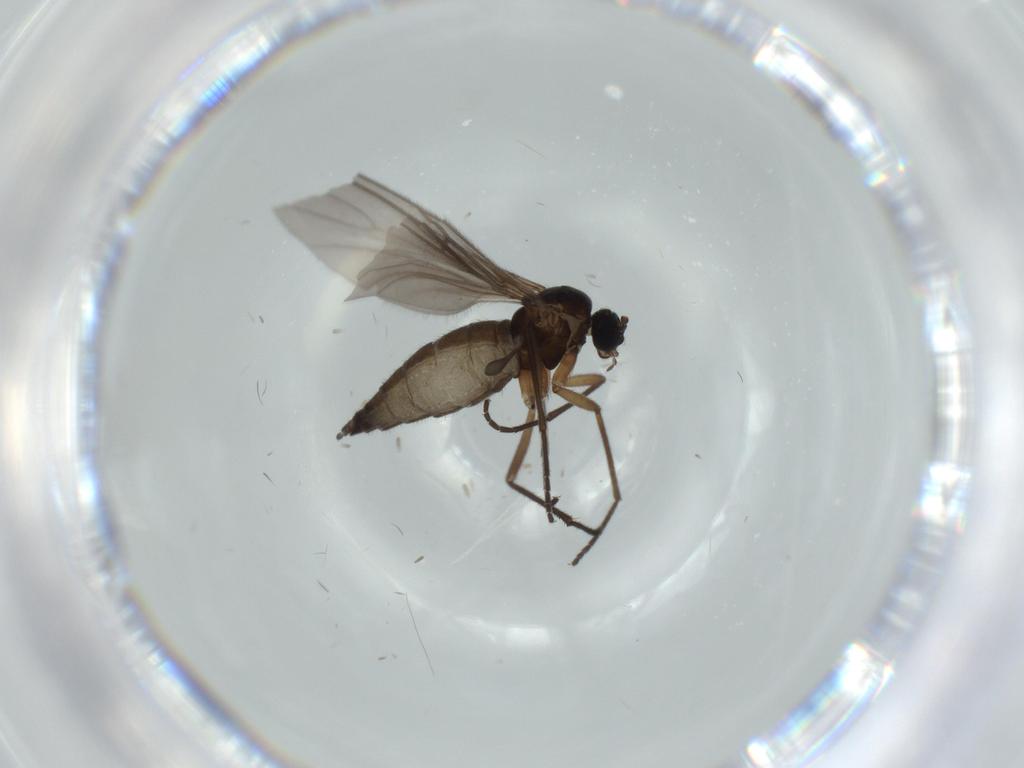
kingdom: Animalia
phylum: Arthropoda
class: Insecta
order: Diptera
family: Sciaridae
